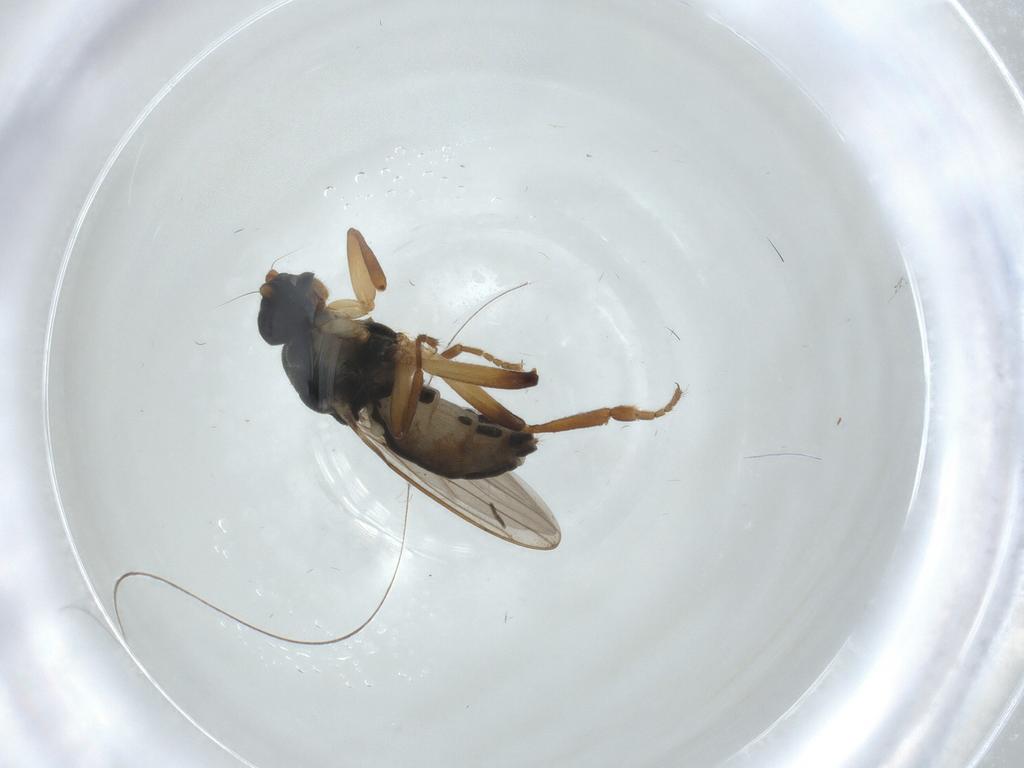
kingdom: Animalia
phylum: Arthropoda
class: Insecta
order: Diptera
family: Sphaeroceridae
